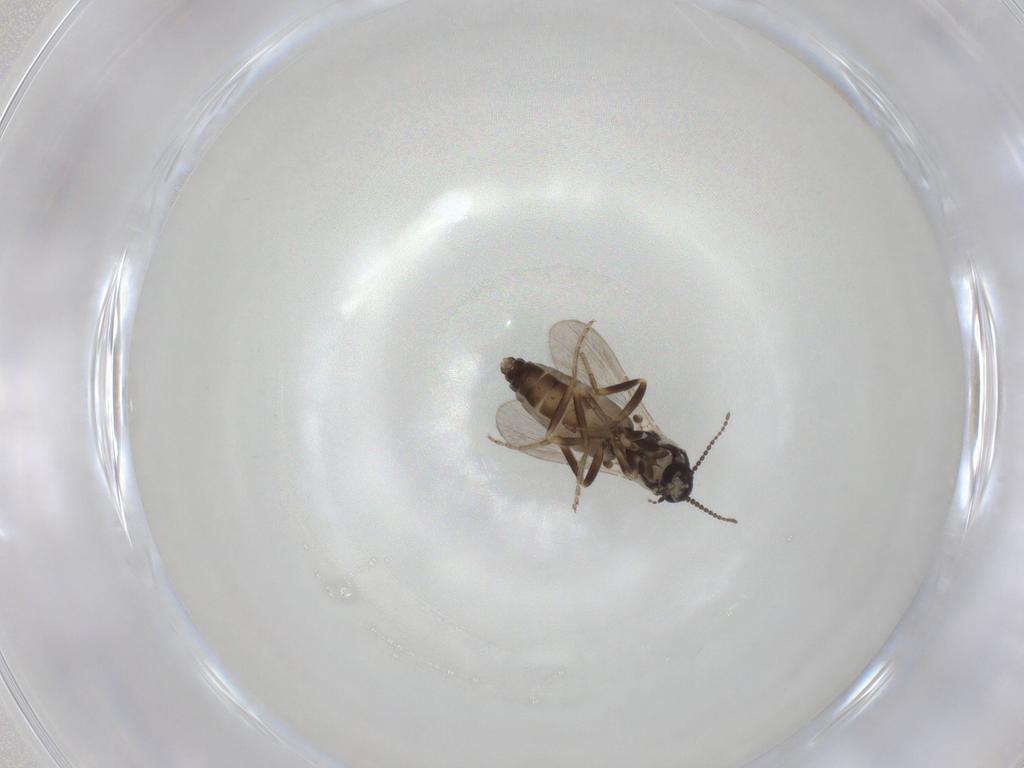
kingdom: Animalia
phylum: Arthropoda
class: Insecta
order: Diptera
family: Ceratopogonidae
